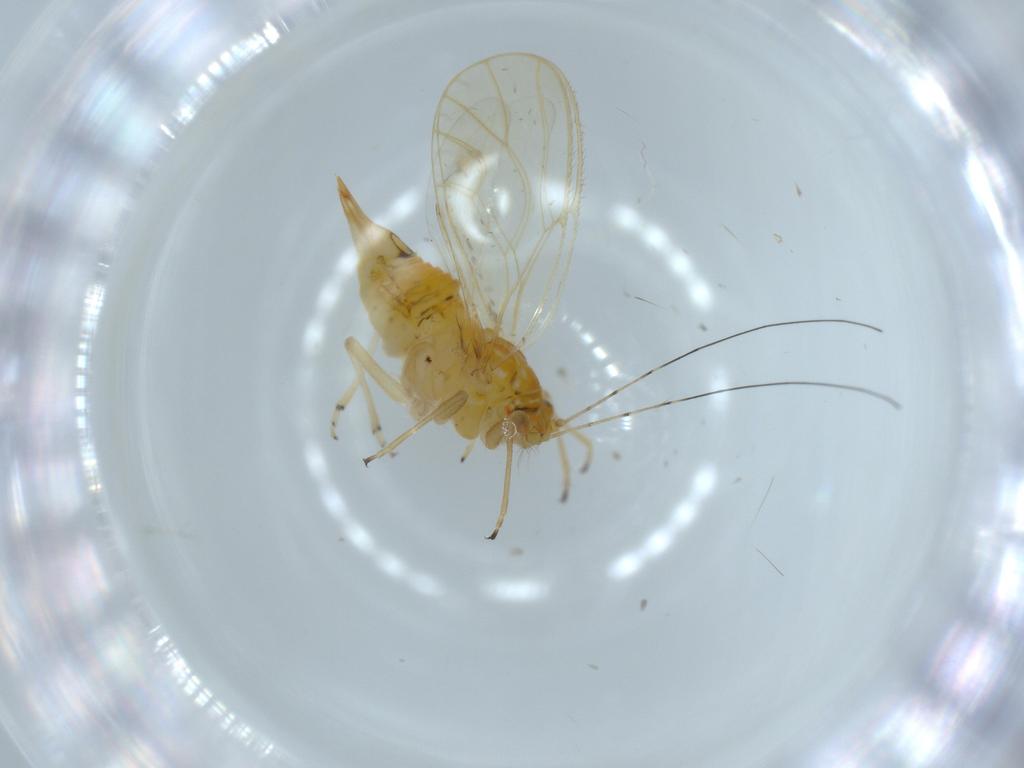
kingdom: Animalia
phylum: Arthropoda
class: Insecta
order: Hemiptera
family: Psyllidae
